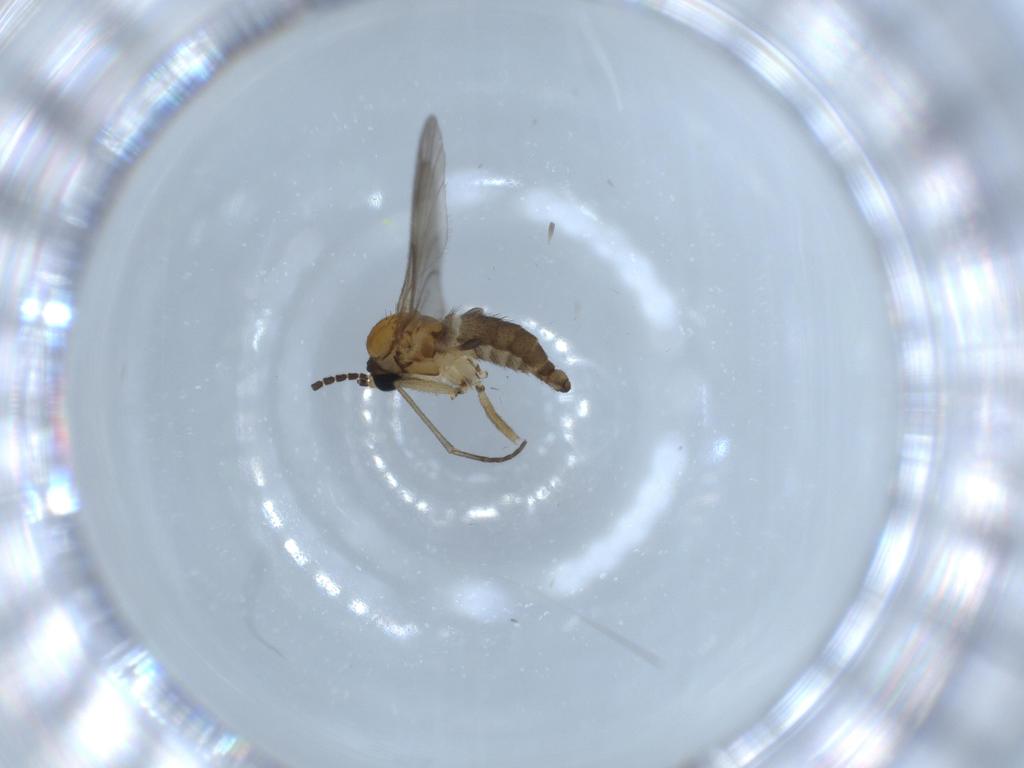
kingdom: Animalia
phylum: Arthropoda
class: Insecta
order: Diptera
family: Sciaridae
